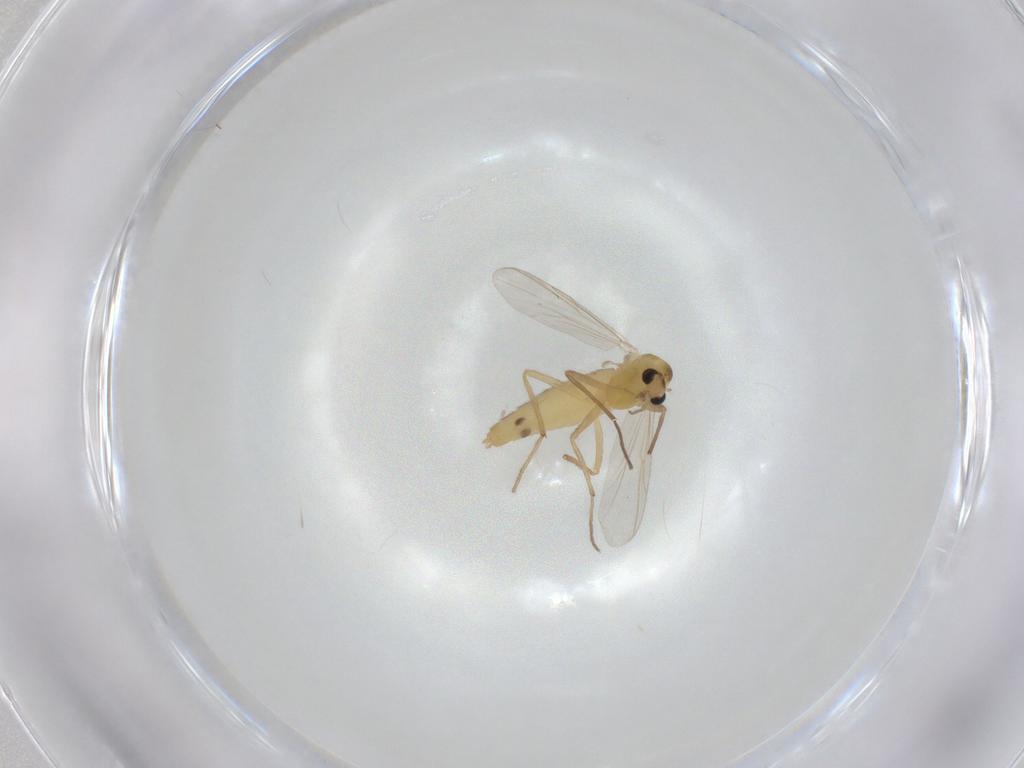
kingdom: Animalia
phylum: Arthropoda
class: Insecta
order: Diptera
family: Chironomidae
